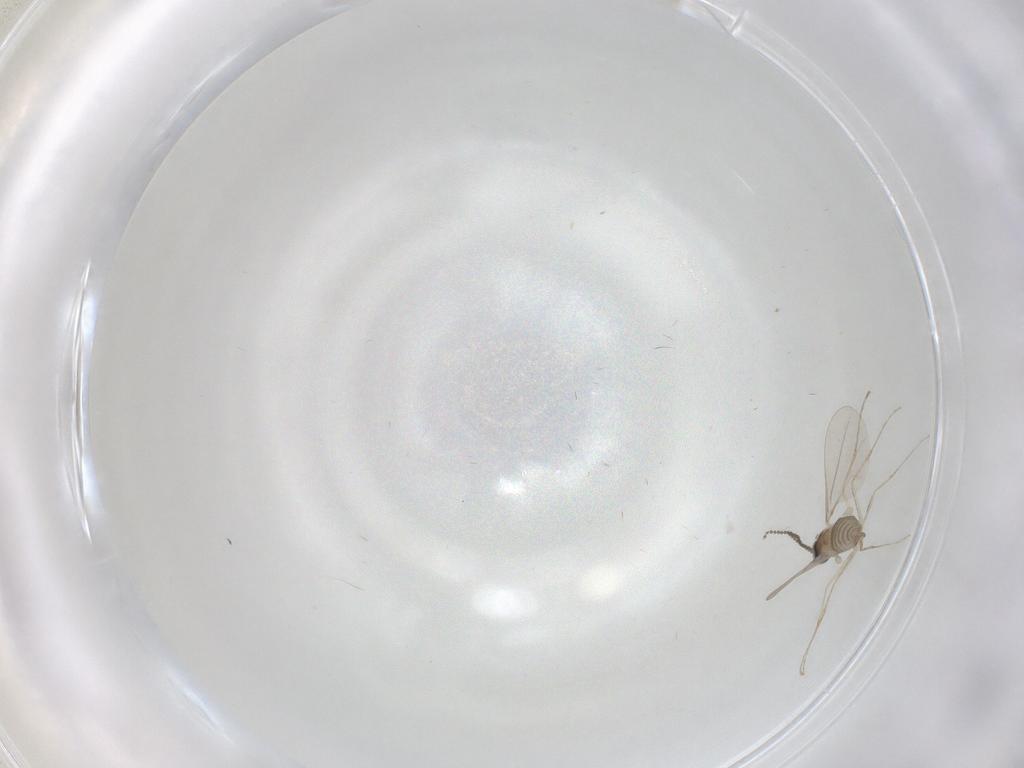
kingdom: Animalia
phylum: Arthropoda
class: Insecta
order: Diptera
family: Cecidomyiidae
